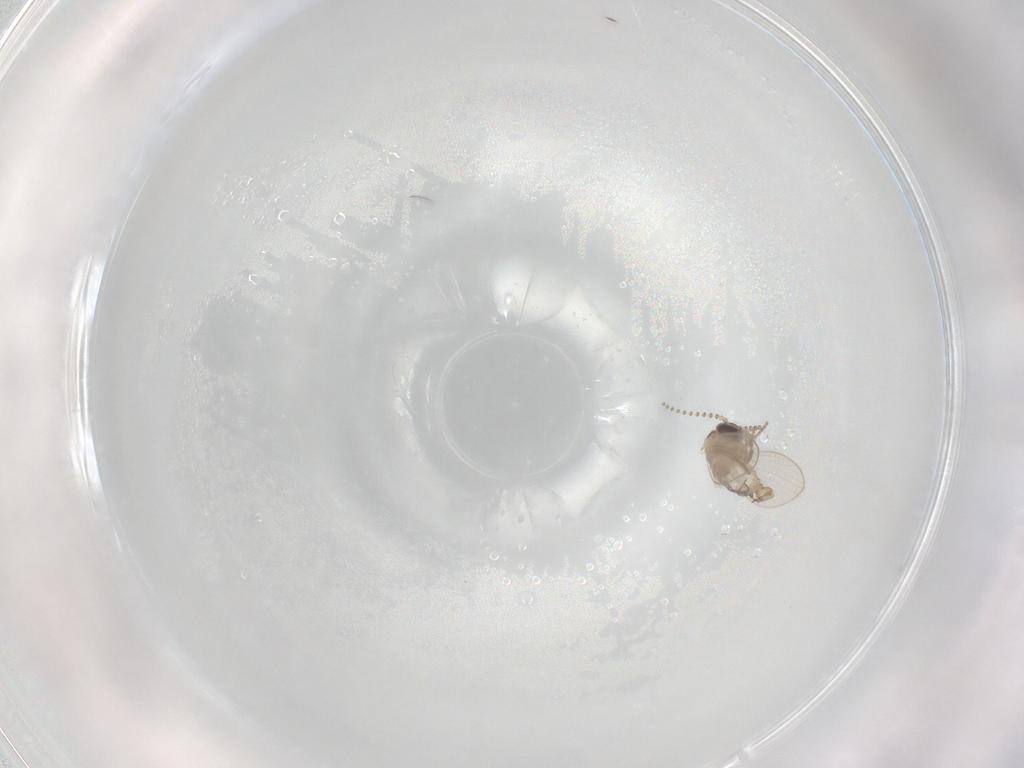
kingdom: Animalia
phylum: Arthropoda
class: Insecta
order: Diptera
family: Psychodidae
